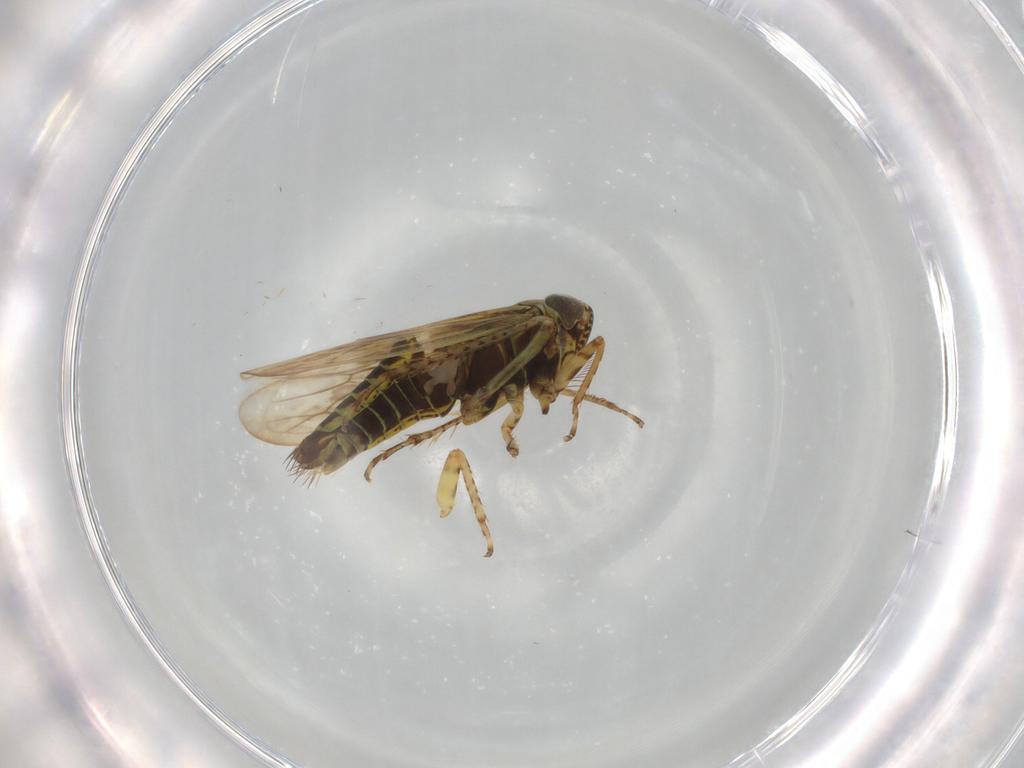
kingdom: Animalia
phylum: Arthropoda
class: Insecta
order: Hemiptera
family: Cicadellidae
